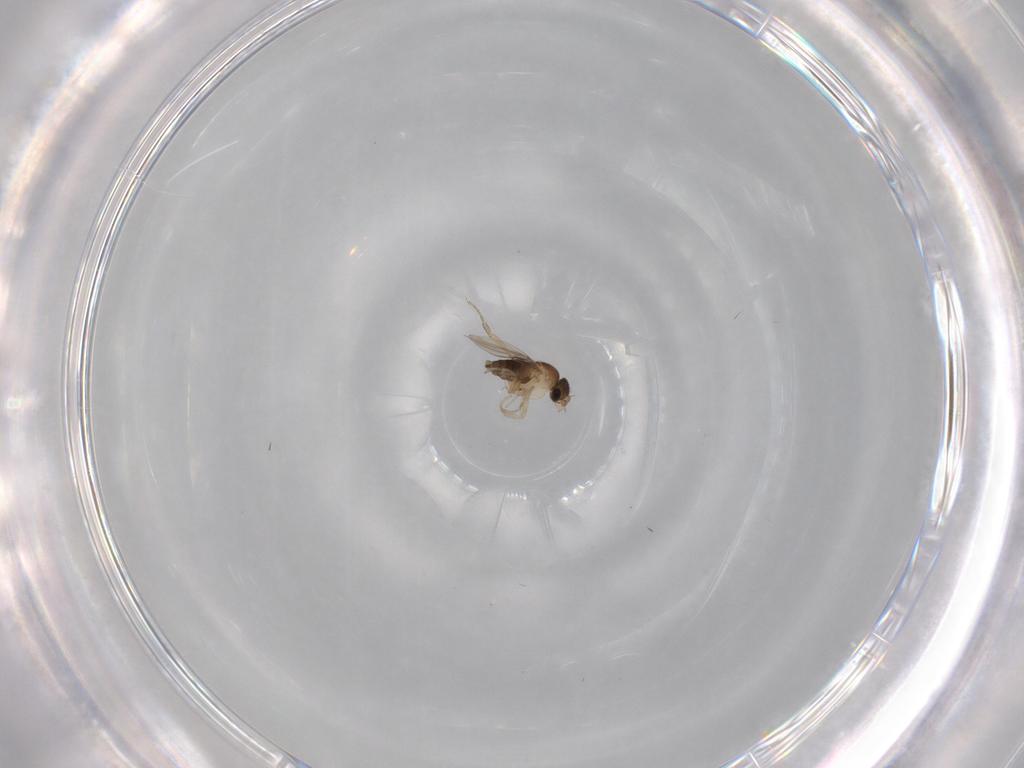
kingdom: Animalia
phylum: Arthropoda
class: Insecta
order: Diptera
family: Phoridae
